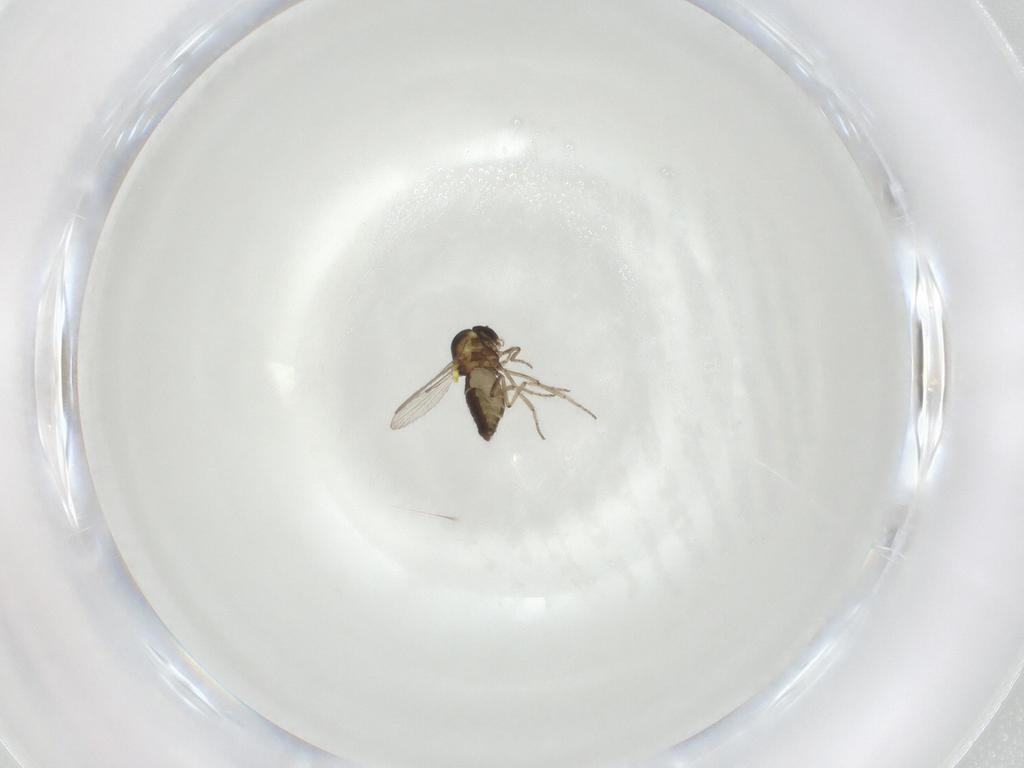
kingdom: Animalia
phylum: Arthropoda
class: Insecta
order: Diptera
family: Ceratopogonidae
